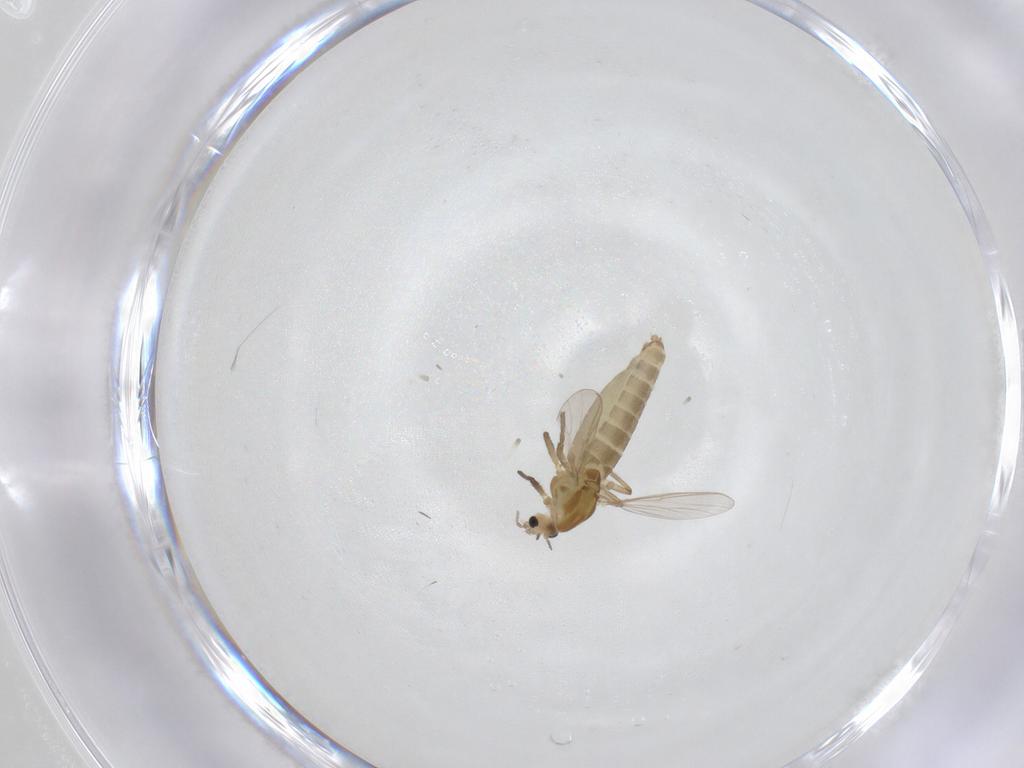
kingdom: Animalia
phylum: Arthropoda
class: Insecta
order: Diptera
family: Chironomidae
